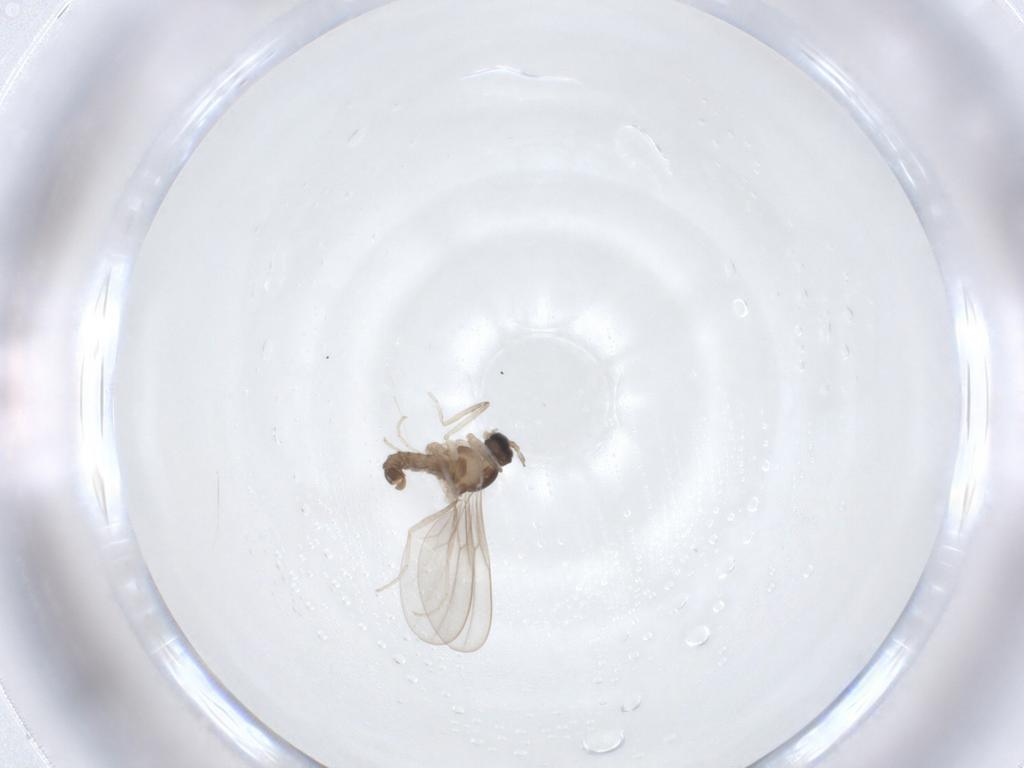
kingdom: Animalia
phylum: Arthropoda
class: Insecta
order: Diptera
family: Cecidomyiidae
